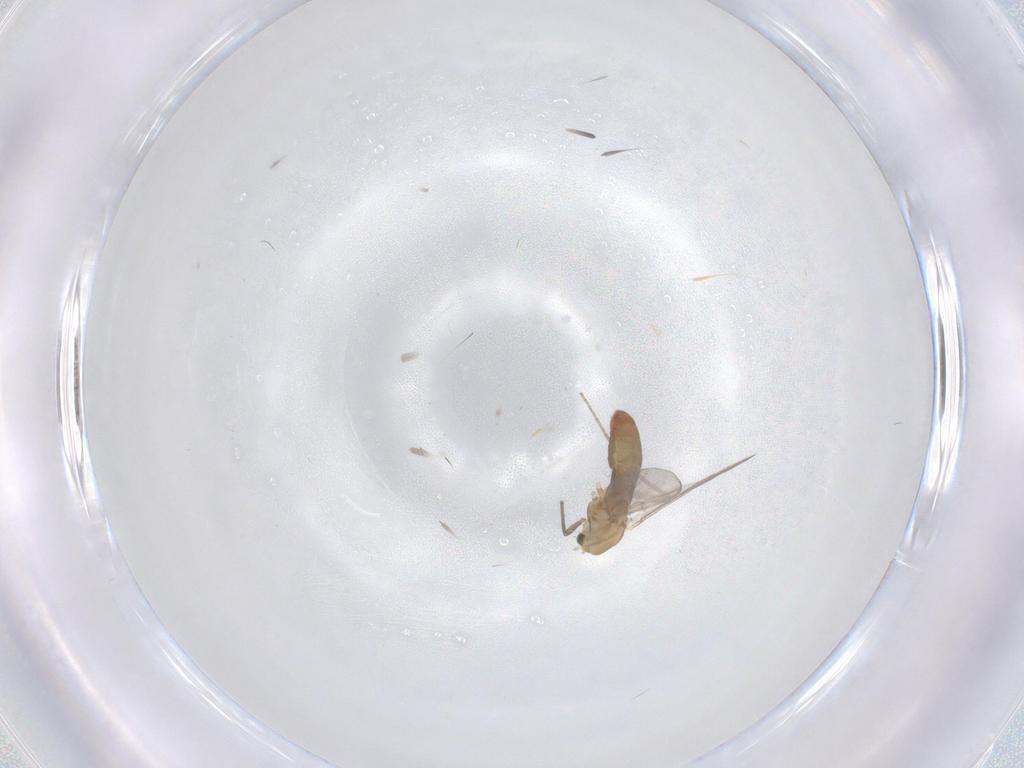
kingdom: Animalia
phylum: Arthropoda
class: Insecta
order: Diptera
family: Chironomidae
